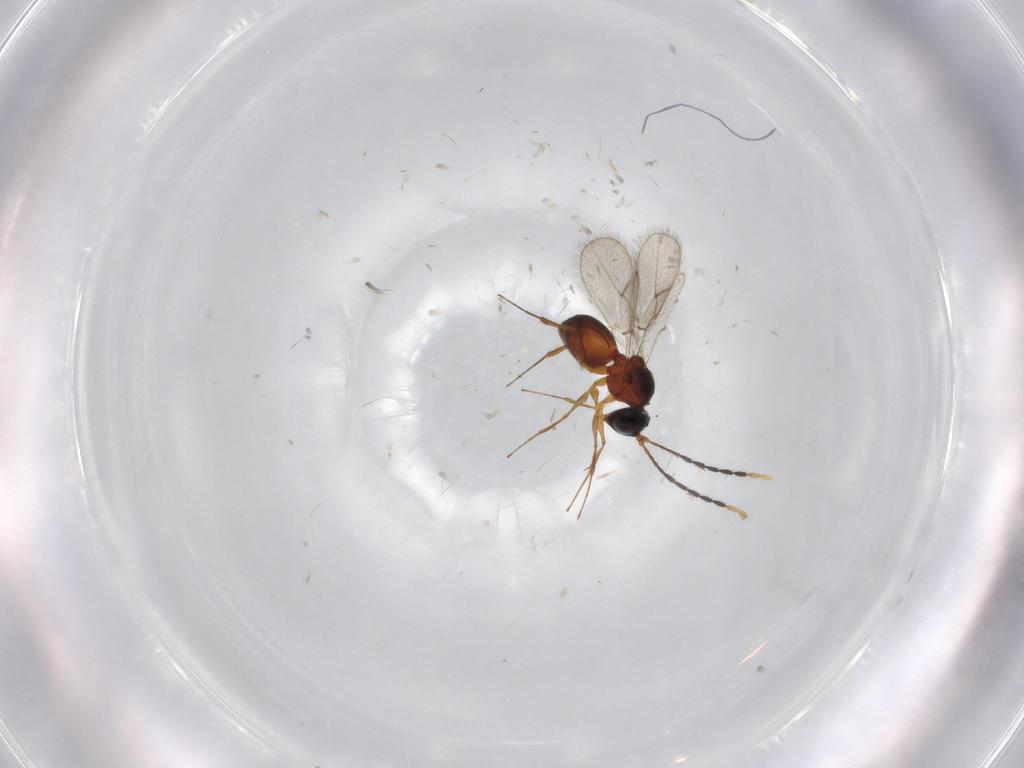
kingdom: Animalia
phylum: Arthropoda
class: Insecta
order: Hymenoptera
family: Figitidae
